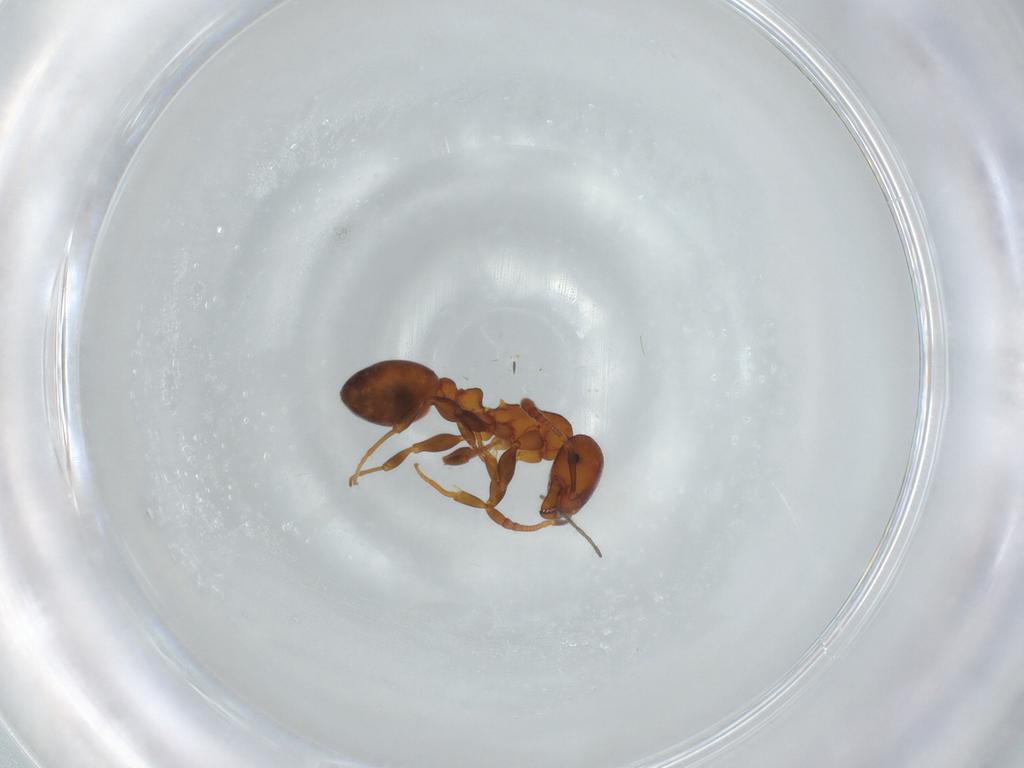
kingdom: Animalia
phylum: Arthropoda
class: Insecta
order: Hymenoptera
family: Formicidae
